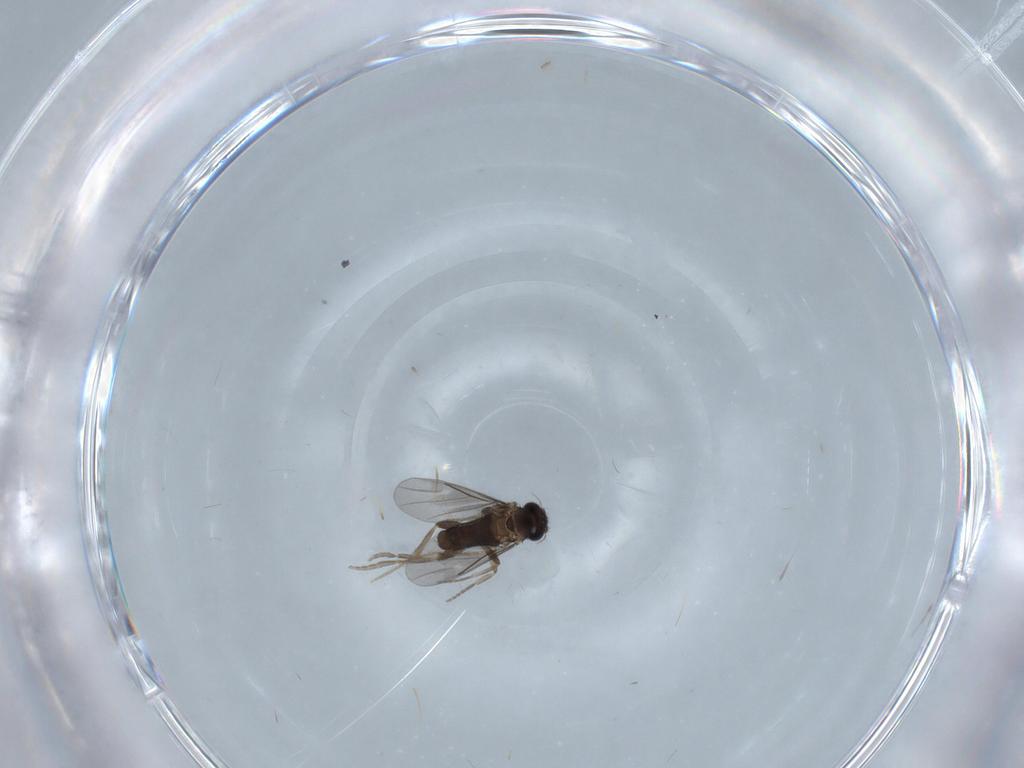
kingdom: Animalia
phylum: Arthropoda
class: Insecta
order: Diptera
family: Chironomidae
